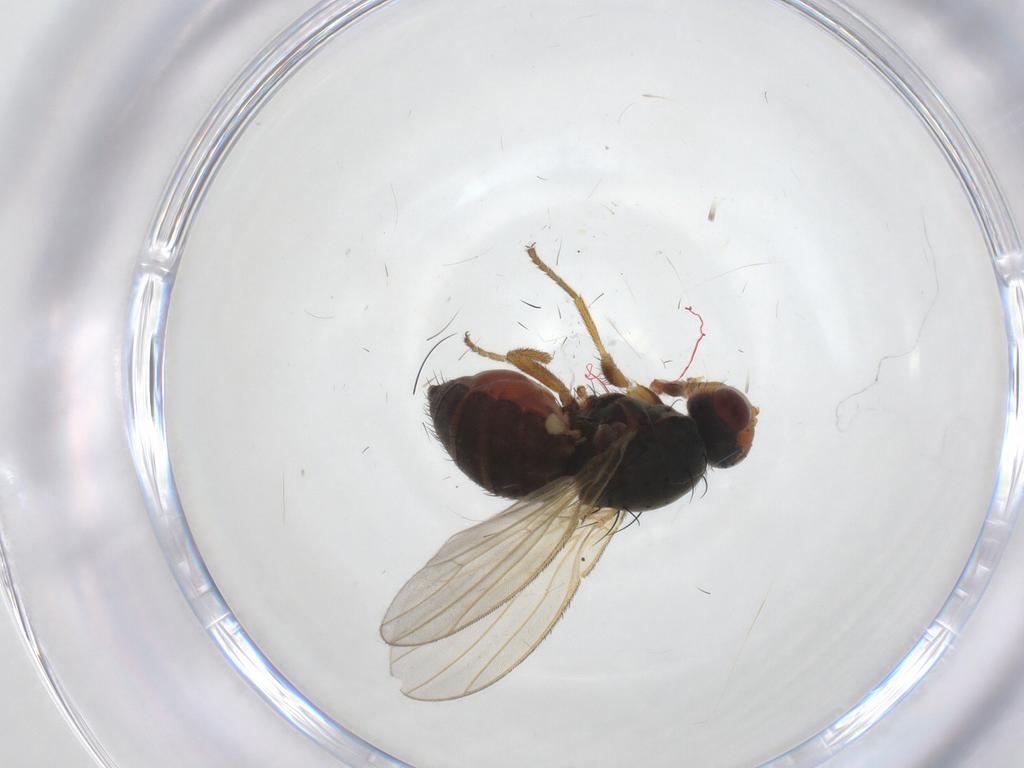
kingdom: Animalia
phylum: Arthropoda
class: Insecta
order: Diptera
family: Heleomyzidae
